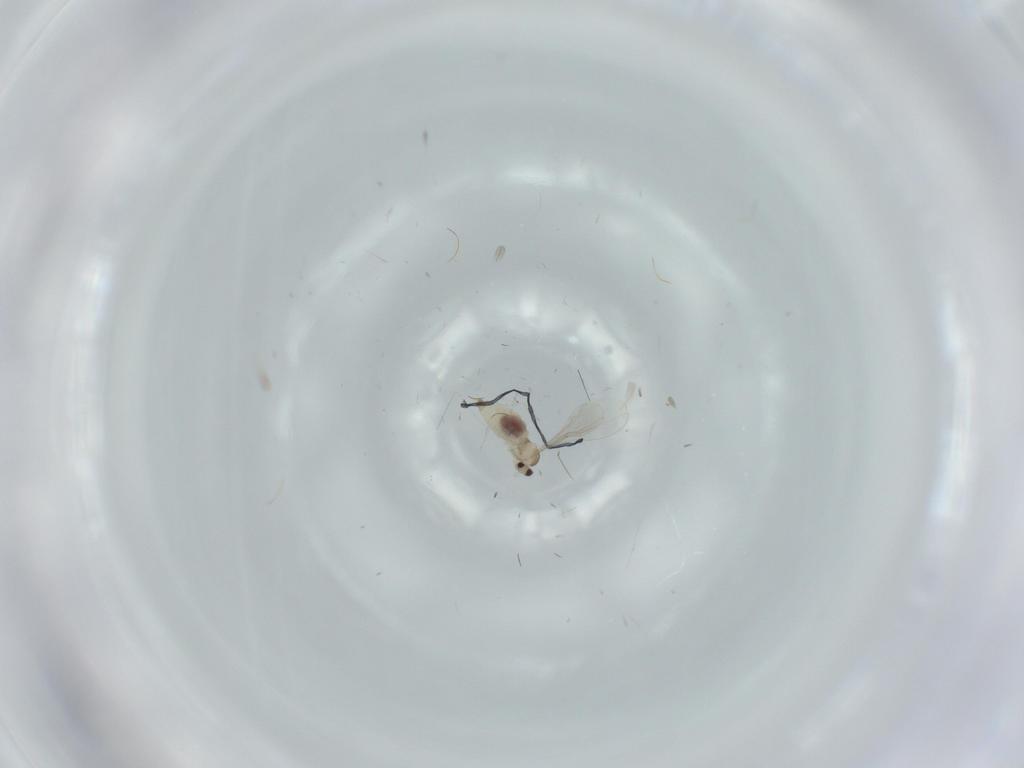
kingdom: Animalia
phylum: Arthropoda
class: Insecta
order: Diptera
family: Cecidomyiidae
